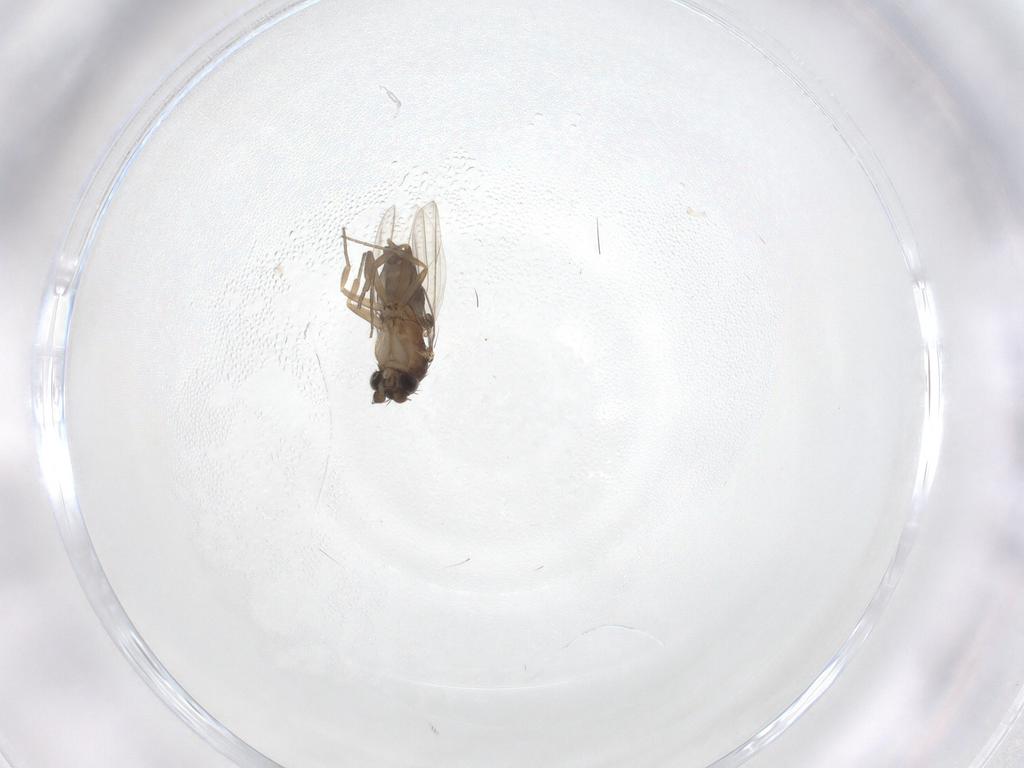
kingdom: Animalia
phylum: Arthropoda
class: Insecta
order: Diptera
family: Phoridae
